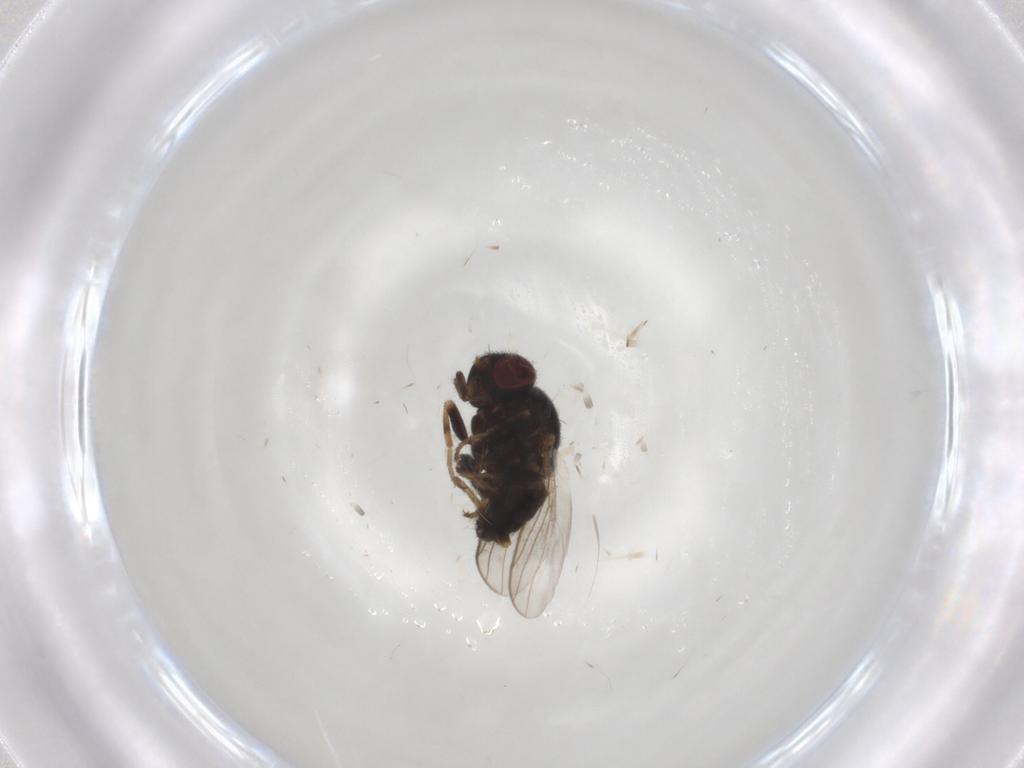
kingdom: Animalia
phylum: Arthropoda
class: Insecta
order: Diptera
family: Chloropidae
